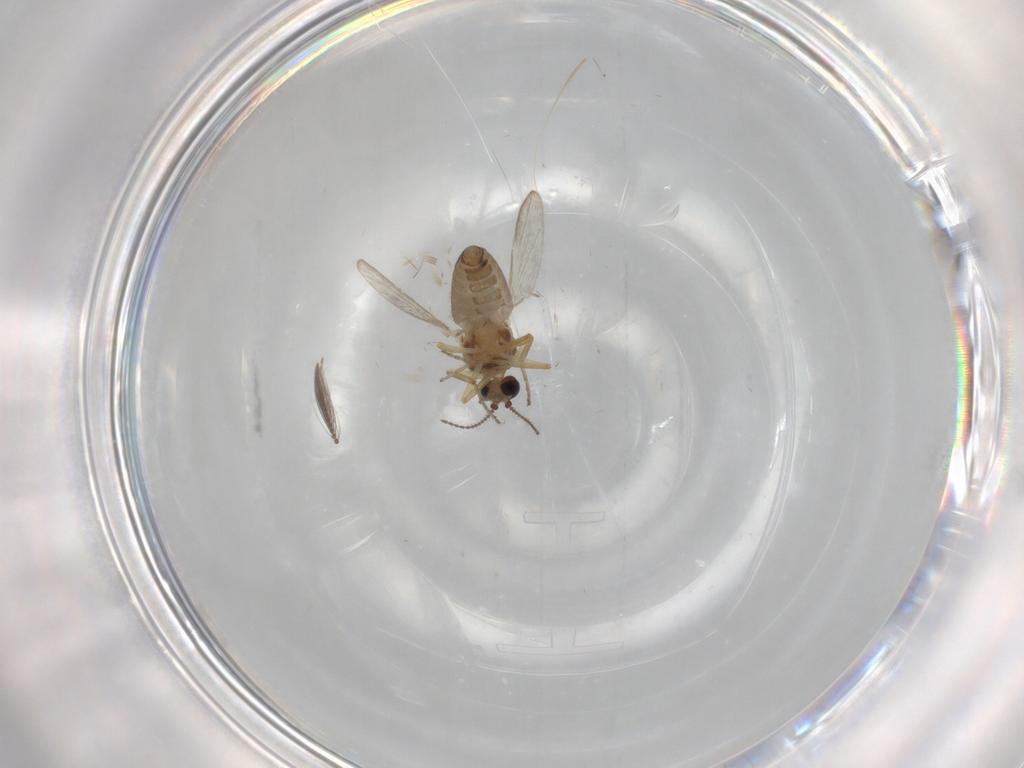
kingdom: Animalia
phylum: Arthropoda
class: Insecta
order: Diptera
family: Ceratopogonidae
